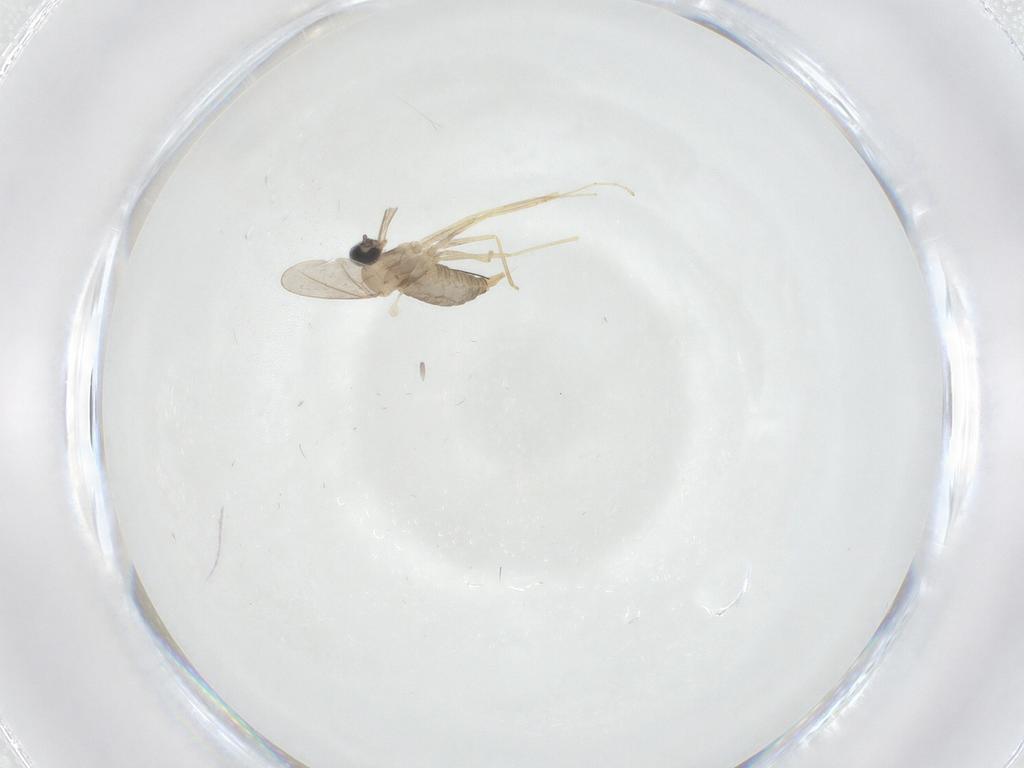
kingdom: Animalia
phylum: Arthropoda
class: Insecta
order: Diptera
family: Cecidomyiidae
